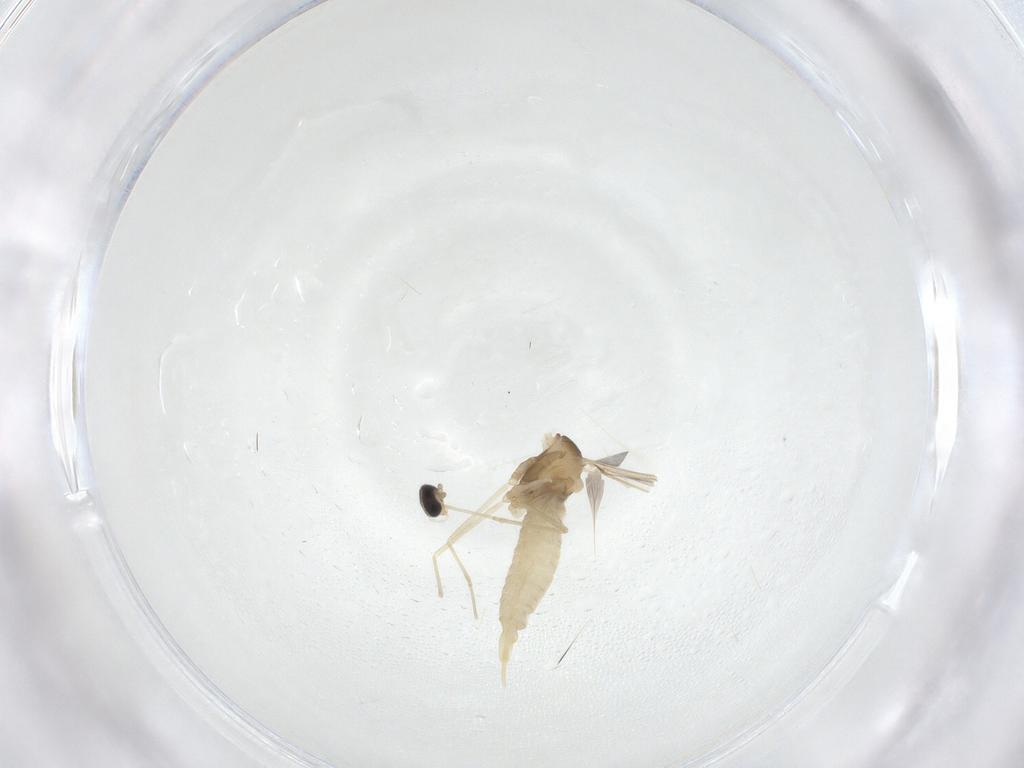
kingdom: Animalia
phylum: Arthropoda
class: Insecta
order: Diptera
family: Cecidomyiidae
